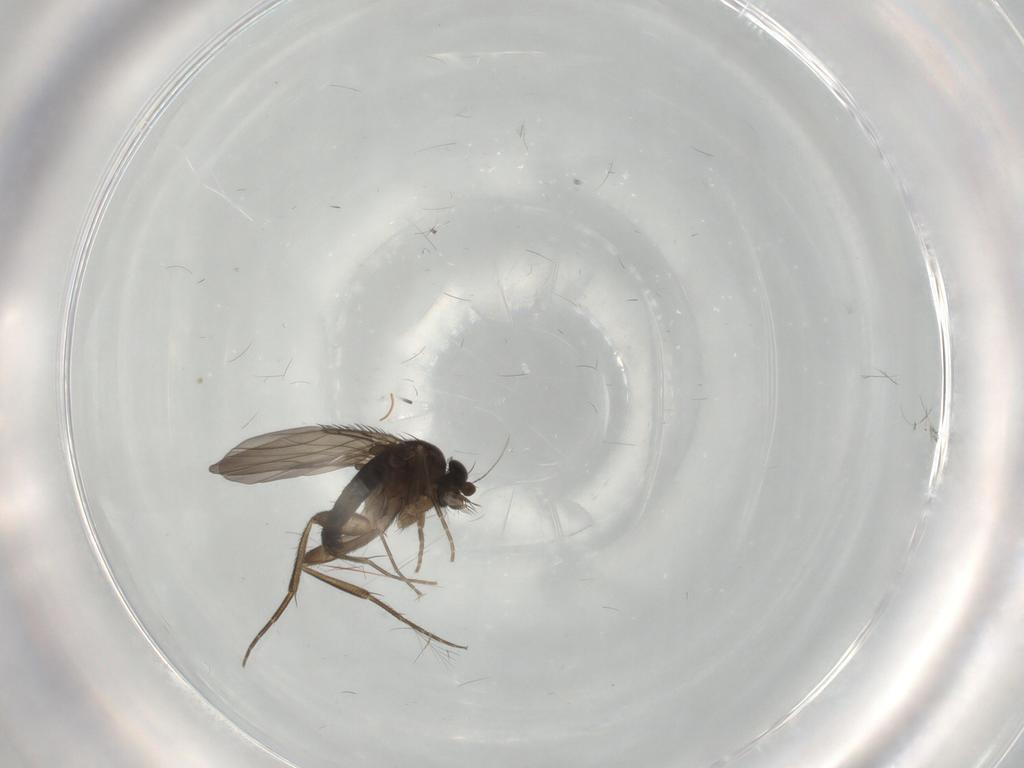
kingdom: Animalia
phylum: Arthropoda
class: Insecta
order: Diptera
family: Phoridae
